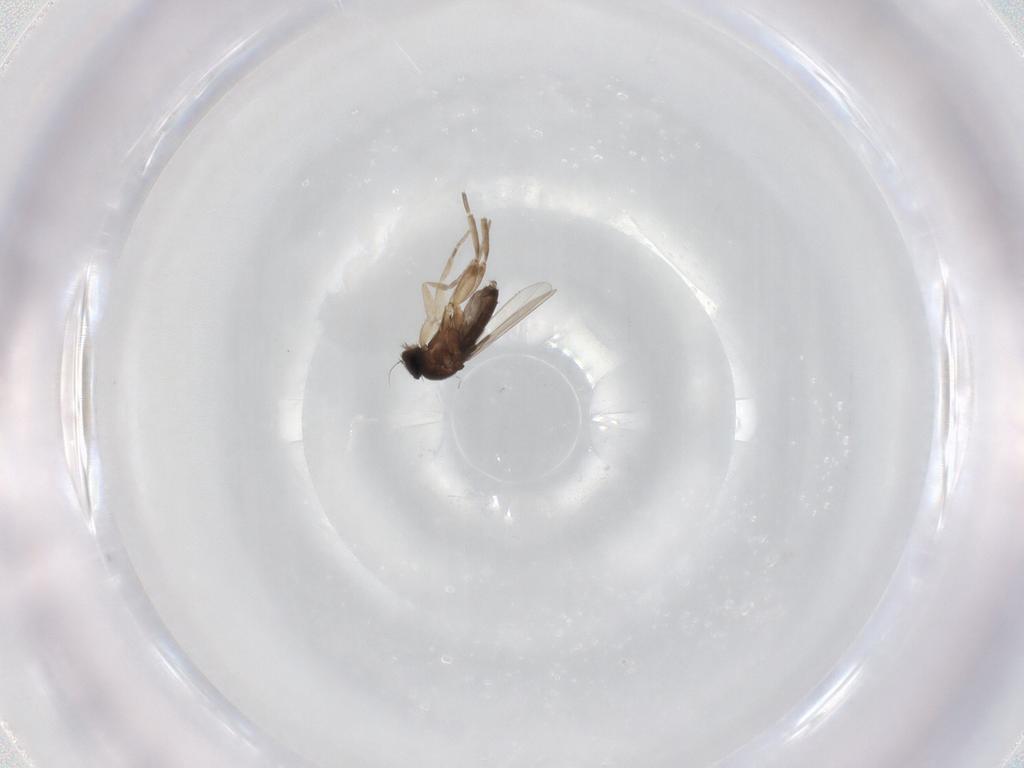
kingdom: Animalia
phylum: Arthropoda
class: Insecta
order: Diptera
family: Phoridae
